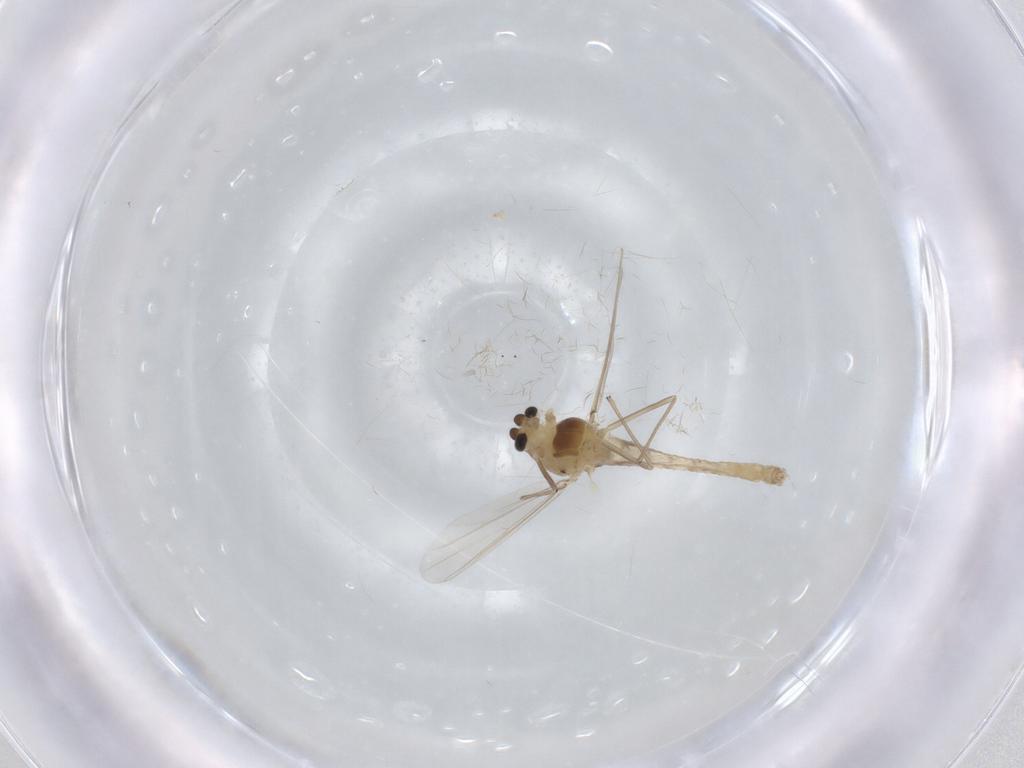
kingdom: Animalia
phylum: Arthropoda
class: Insecta
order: Diptera
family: Chironomidae
